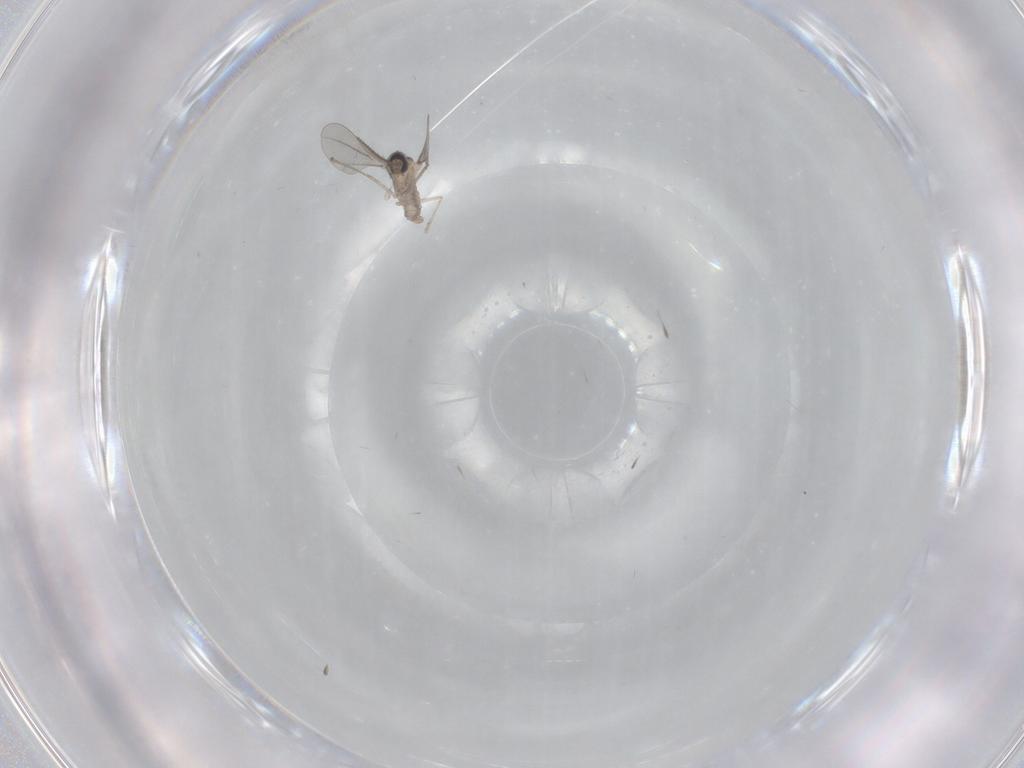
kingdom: Animalia
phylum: Arthropoda
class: Insecta
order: Diptera
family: Cecidomyiidae
